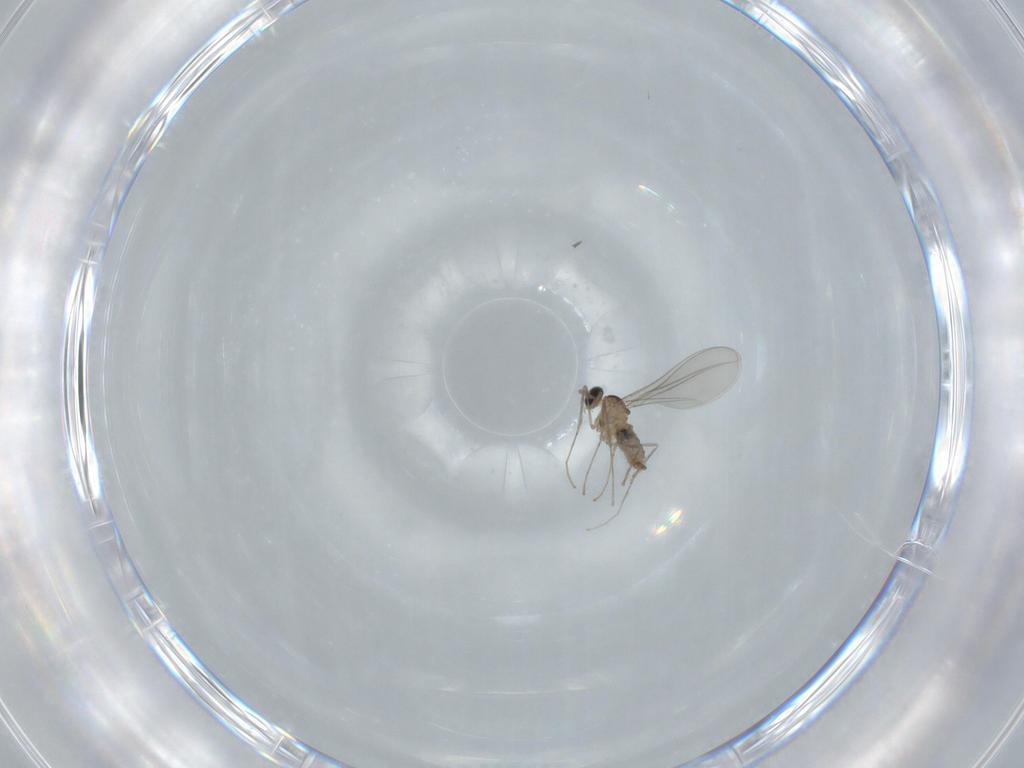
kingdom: Animalia
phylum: Arthropoda
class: Insecta
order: Diptera
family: Cecidomyiidae
